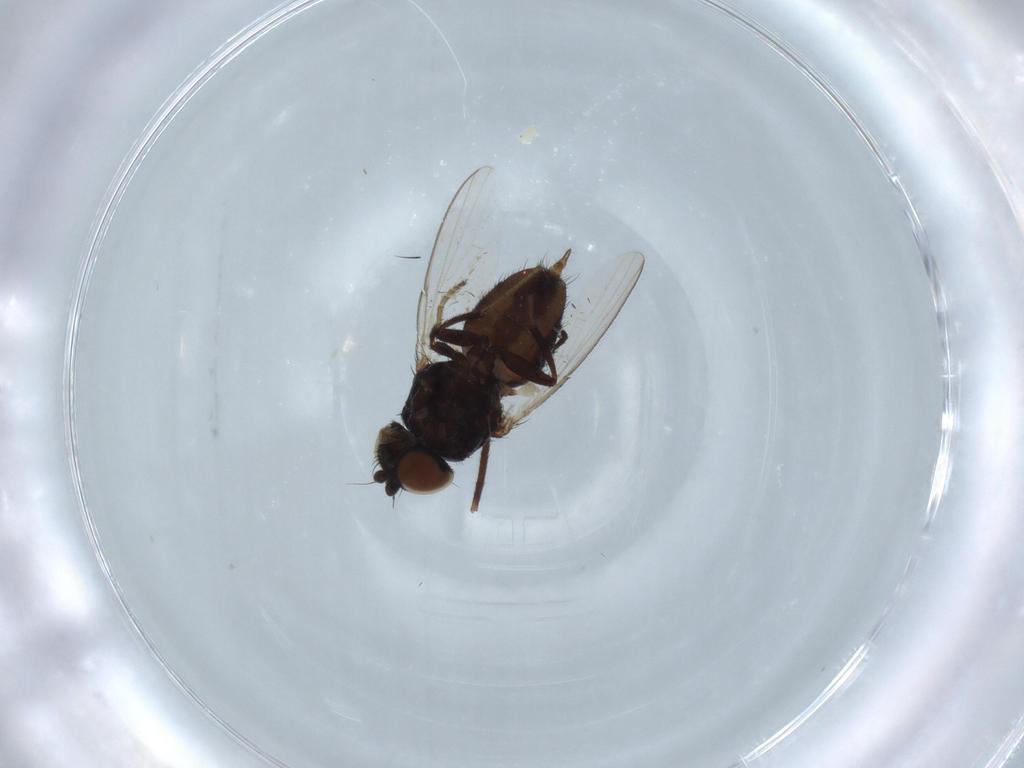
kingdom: Animalia
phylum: Arthropoda
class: Insecta
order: Diptera
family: Dolichopodidae
